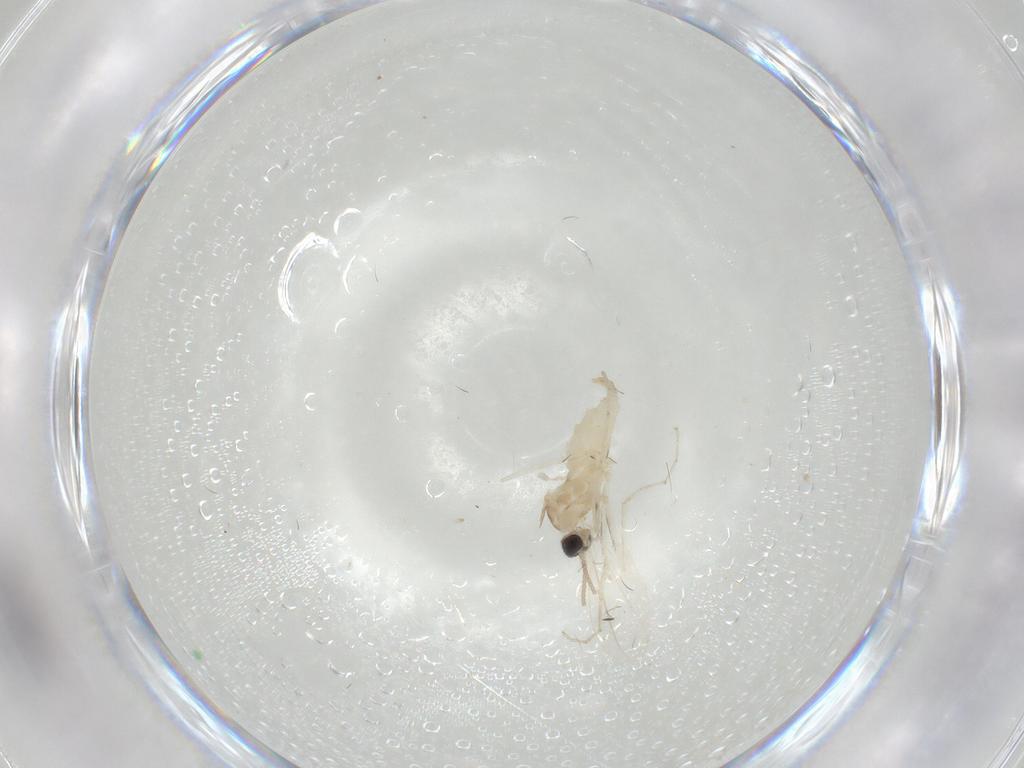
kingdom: Animalia
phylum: Arthropoda
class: Insecta
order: Diptera
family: Cecidomyiidae
